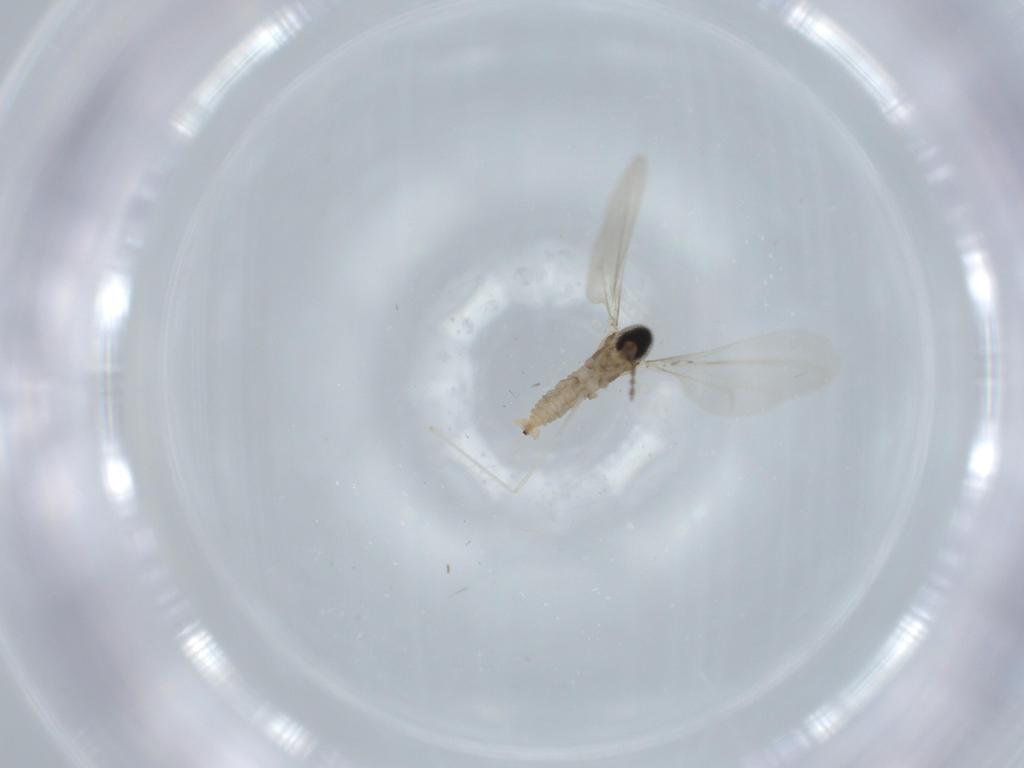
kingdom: Animalia
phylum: Arthropoda
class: Insecta
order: Diptera
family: Cecidomyiidae
